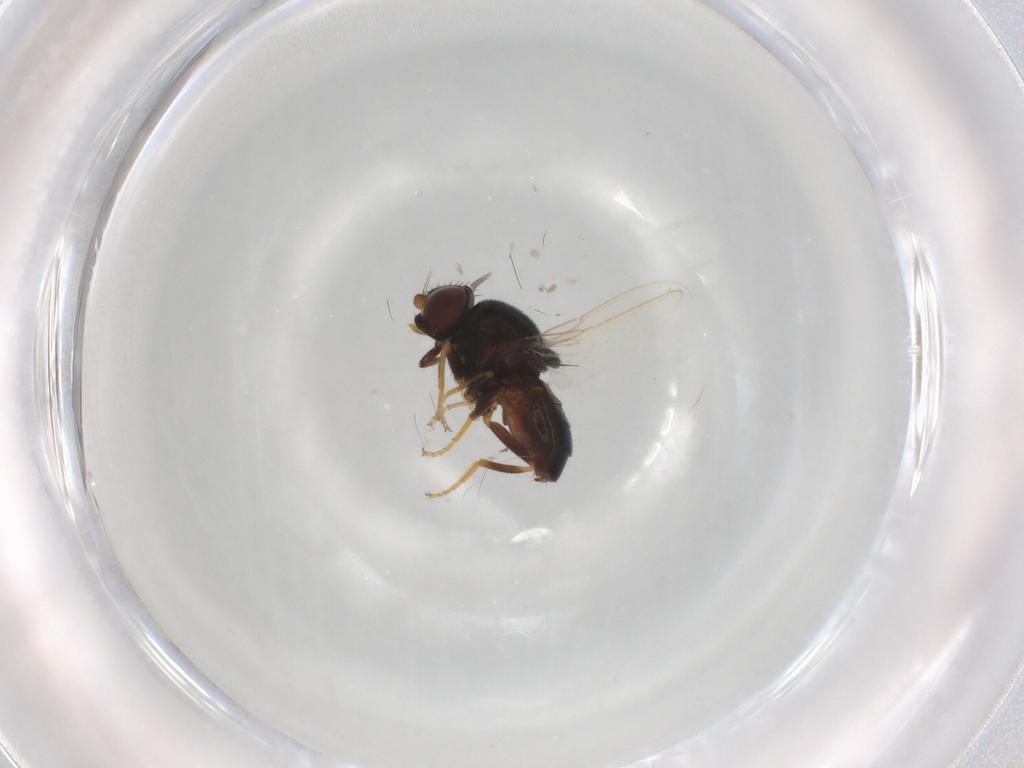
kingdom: Animalia
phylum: Arthropoda
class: Insecta
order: Diptera
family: Chloropidae
